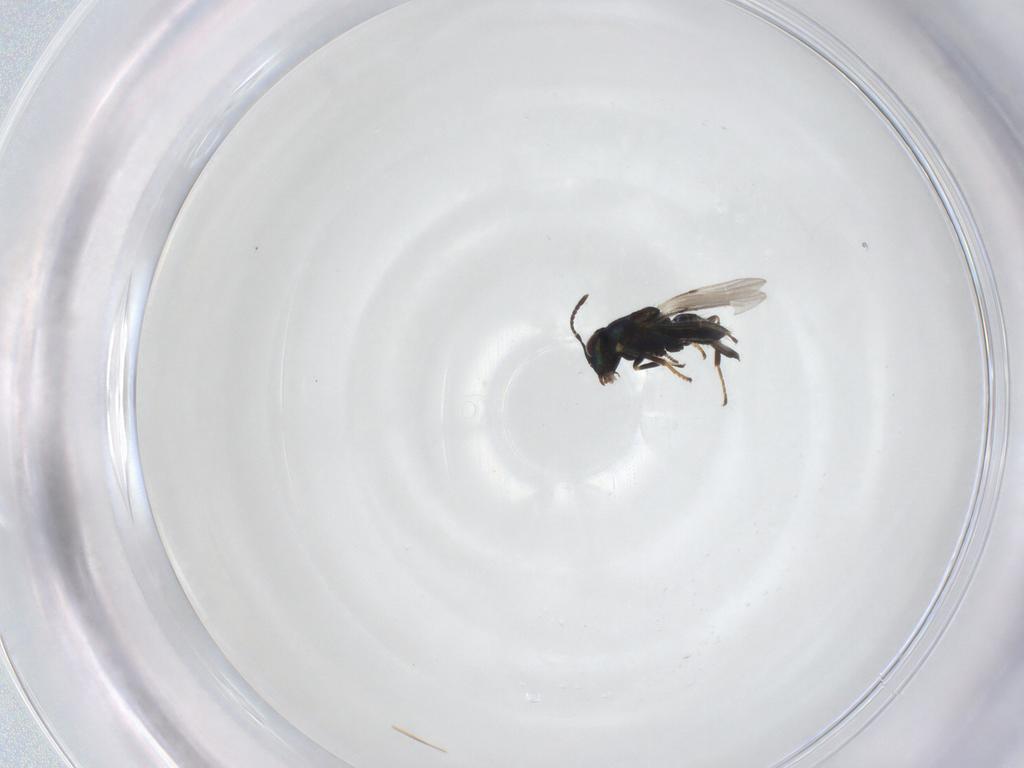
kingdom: Animalia
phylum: Arthropoda
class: Insecta
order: Hymenoptera
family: Encyrtidae
